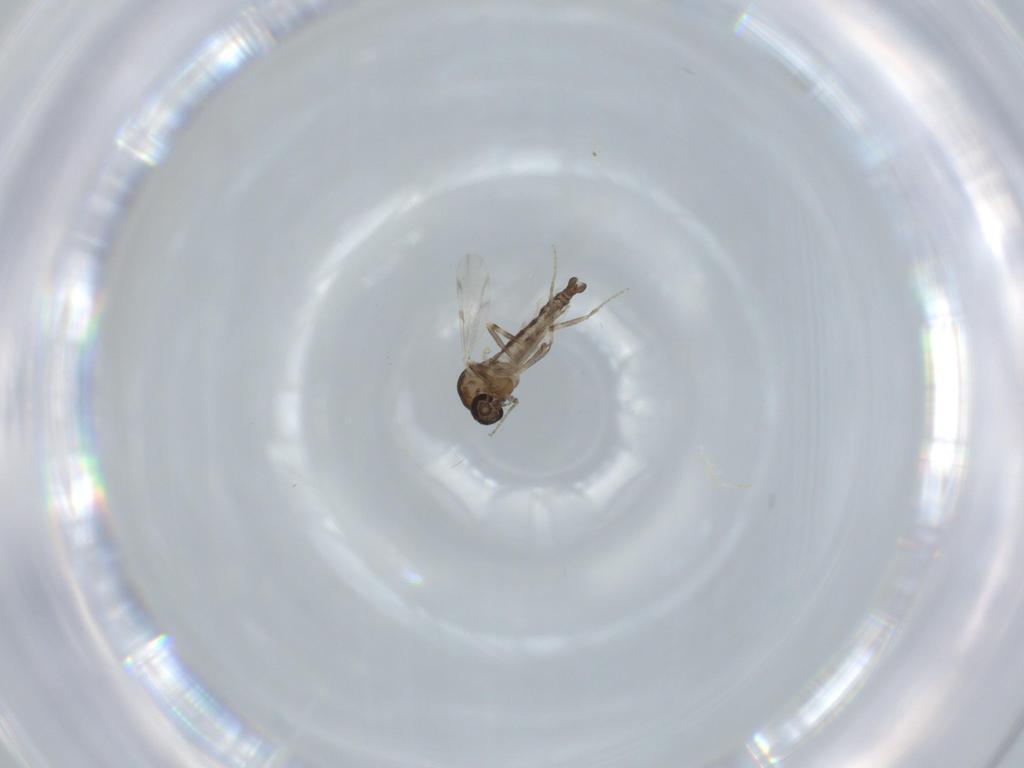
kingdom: Animalia
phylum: Arthropoda
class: Insecta
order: Diptera
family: Ceratopogonidae
